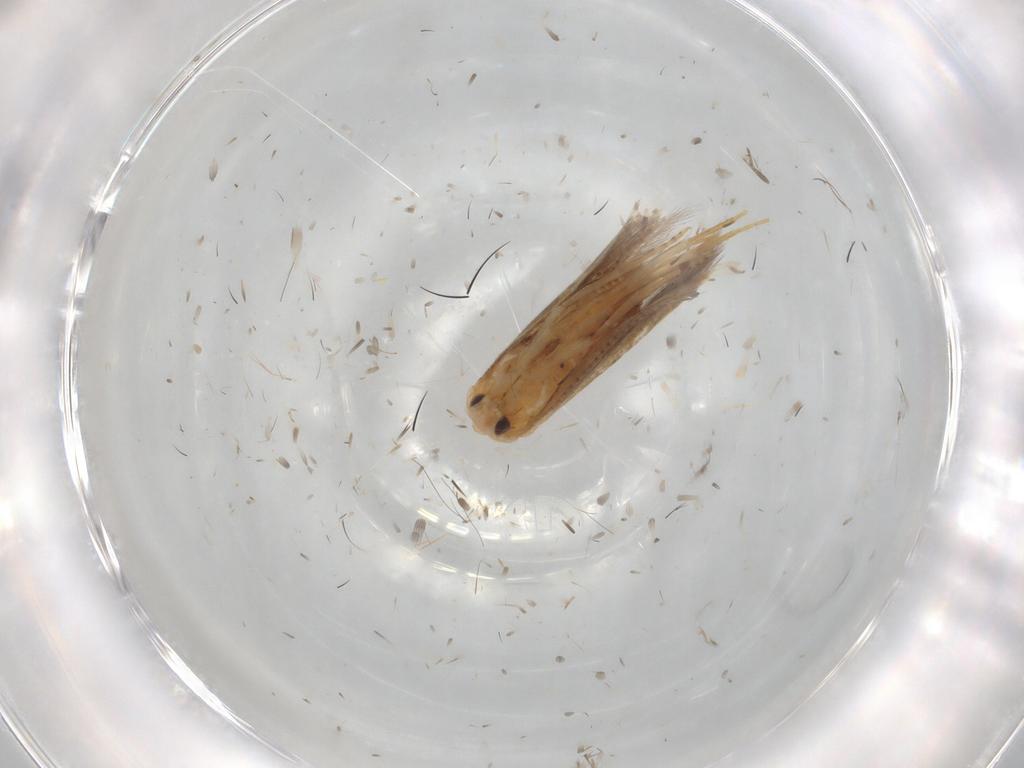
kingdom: Animalia
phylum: Arthropoda
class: Insecta
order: Lepidoptera
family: Bucculatricidae
